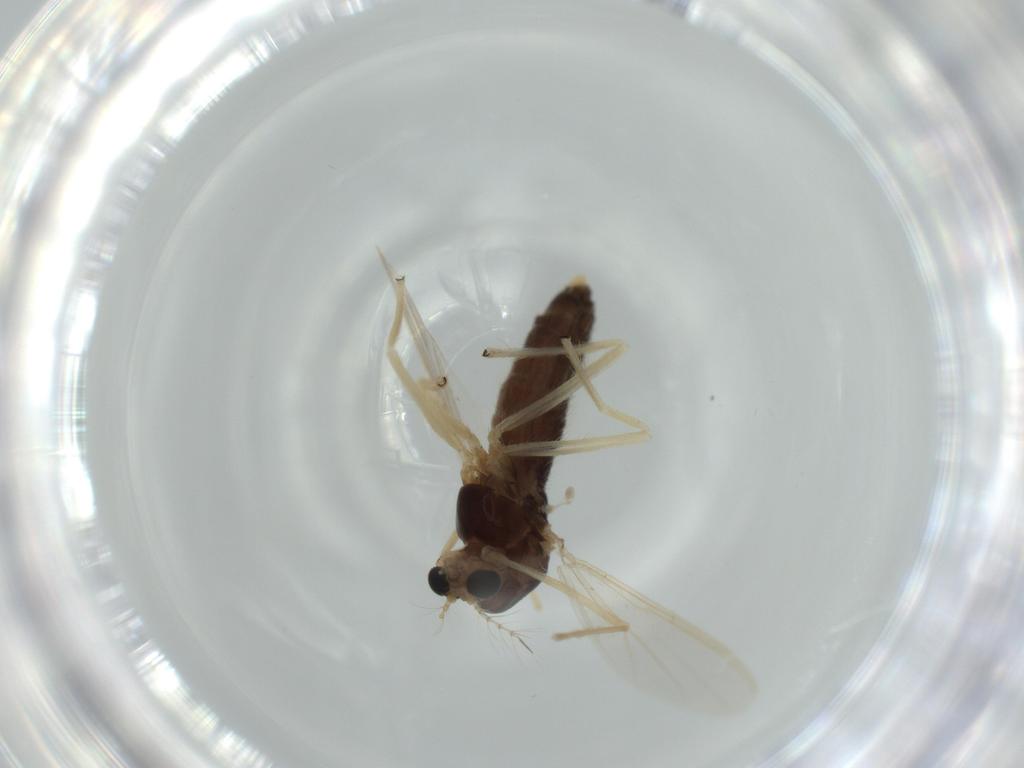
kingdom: Animalia
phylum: Arthropoda
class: Insecta
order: Diptera
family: Chironomidae
